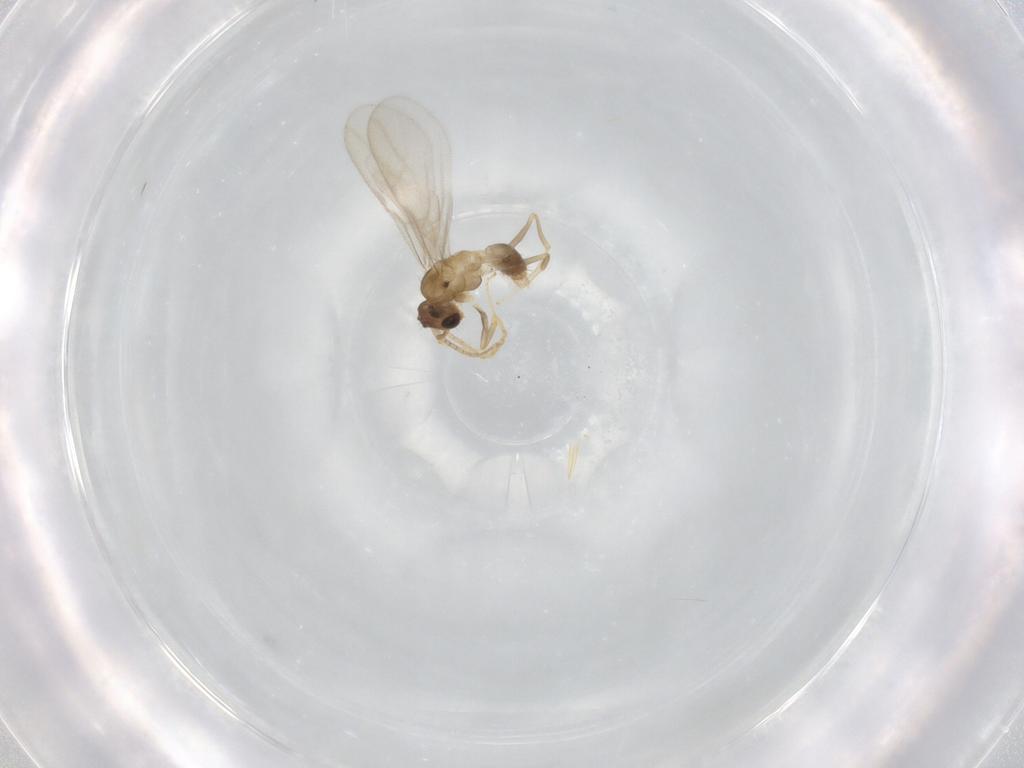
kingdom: Animalia
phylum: Arthropoda
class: Insecta
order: Hymenoptera
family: Formicidae
